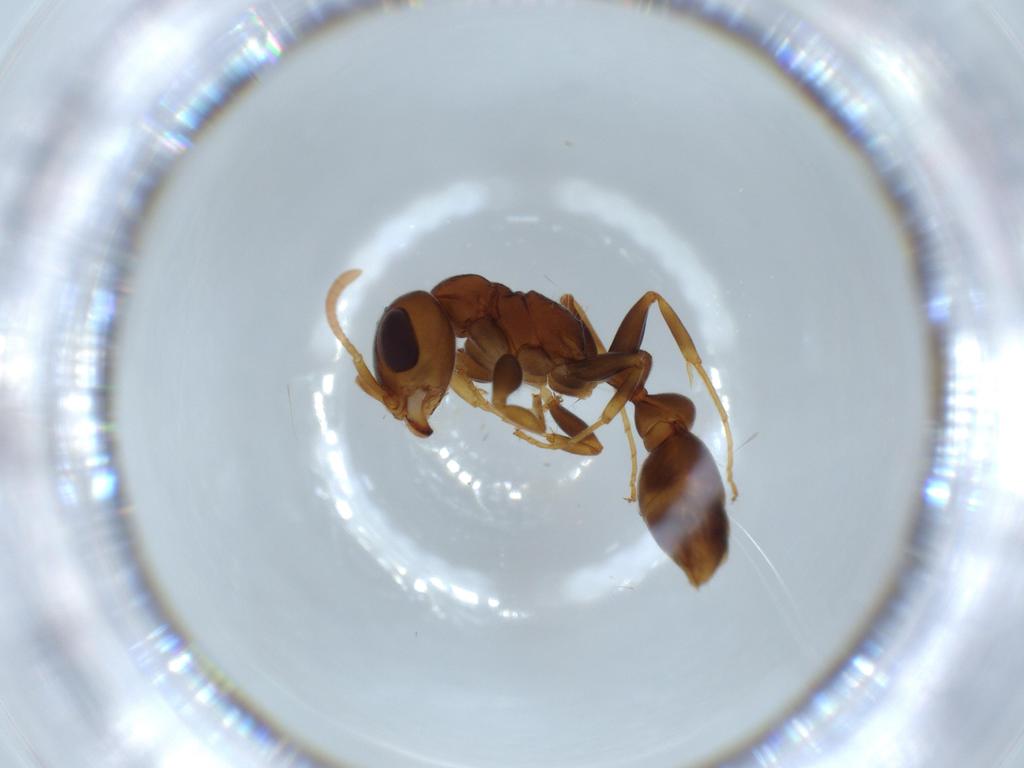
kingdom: Animalia
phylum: Arthropoda
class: Insecta
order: Hymenoptera
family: Formicidae
